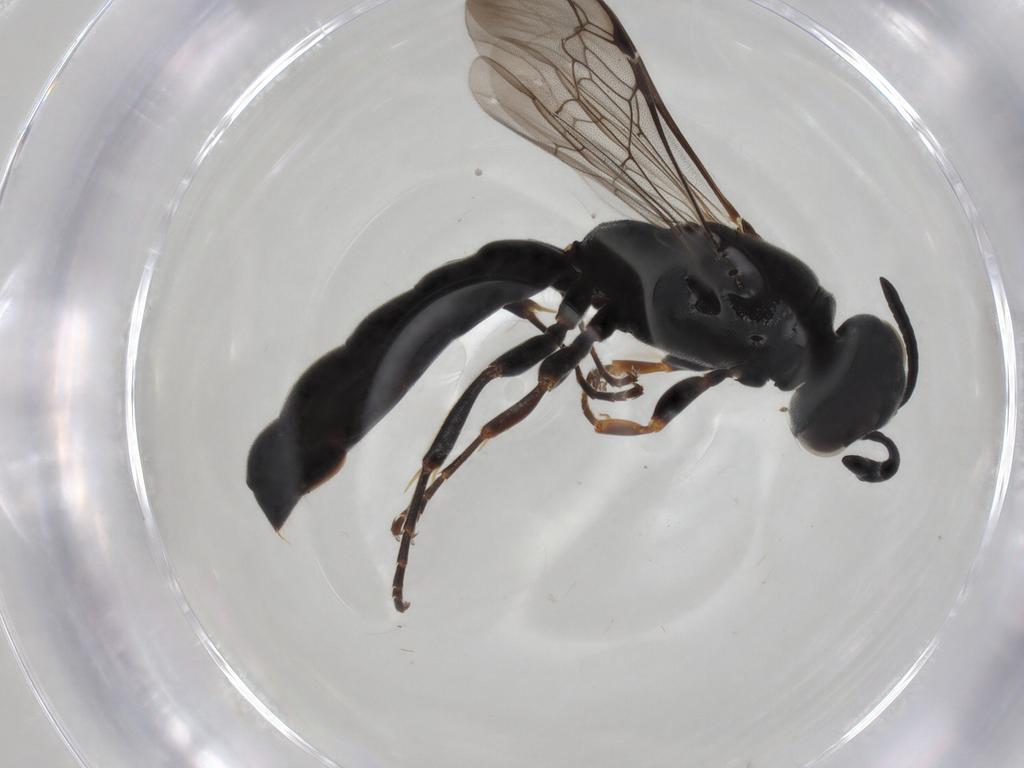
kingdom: Animalia
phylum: Arthropoda
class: Insecta
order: Hymenoptera
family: Crabronidae
